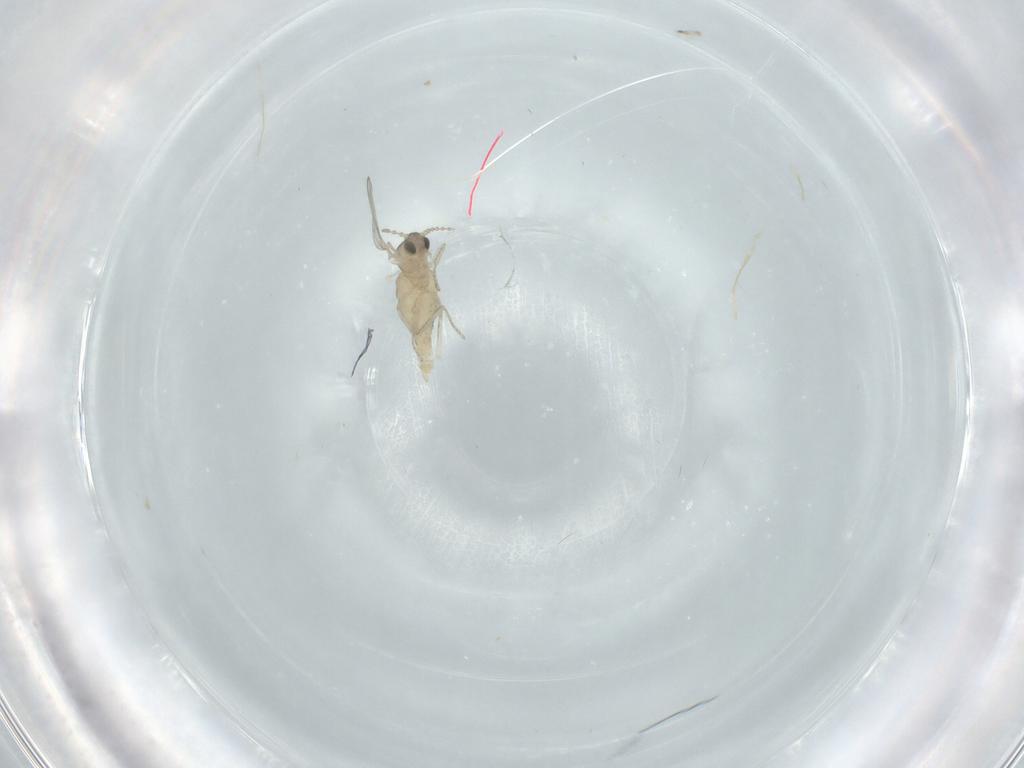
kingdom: Animalia
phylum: Arthropoda
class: Insecta
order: Diptera
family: Cecidomyiidae
